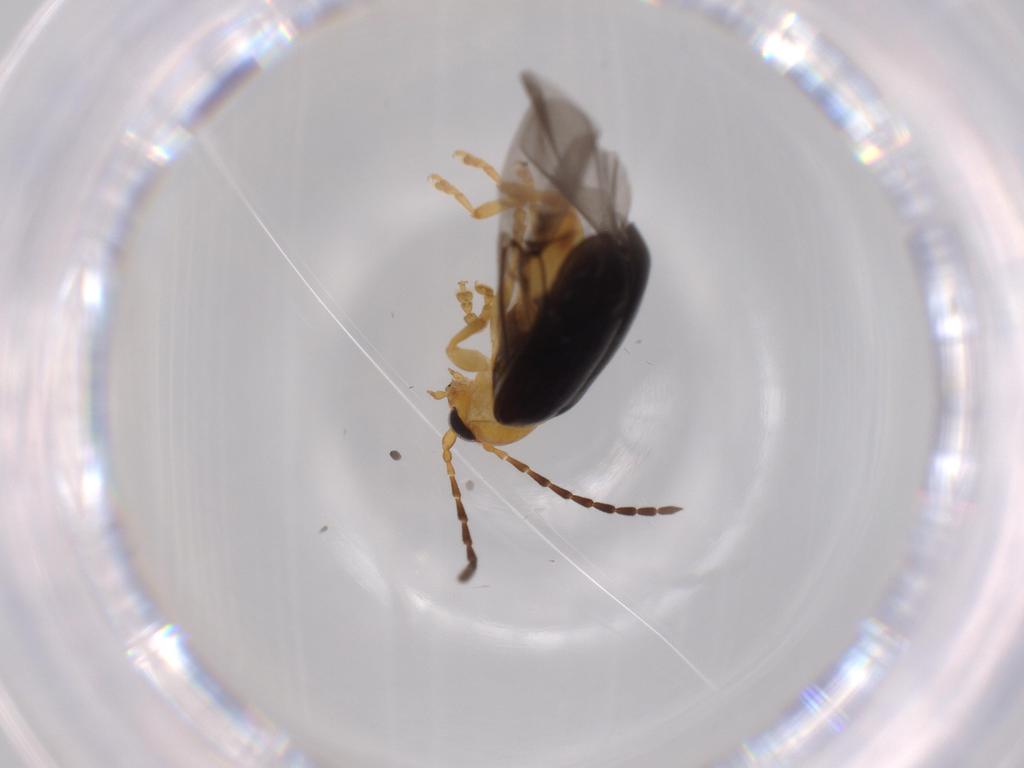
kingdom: Animalia
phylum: Arthropoda
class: Insecta
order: Coleoptera
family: Chrysomelidae
